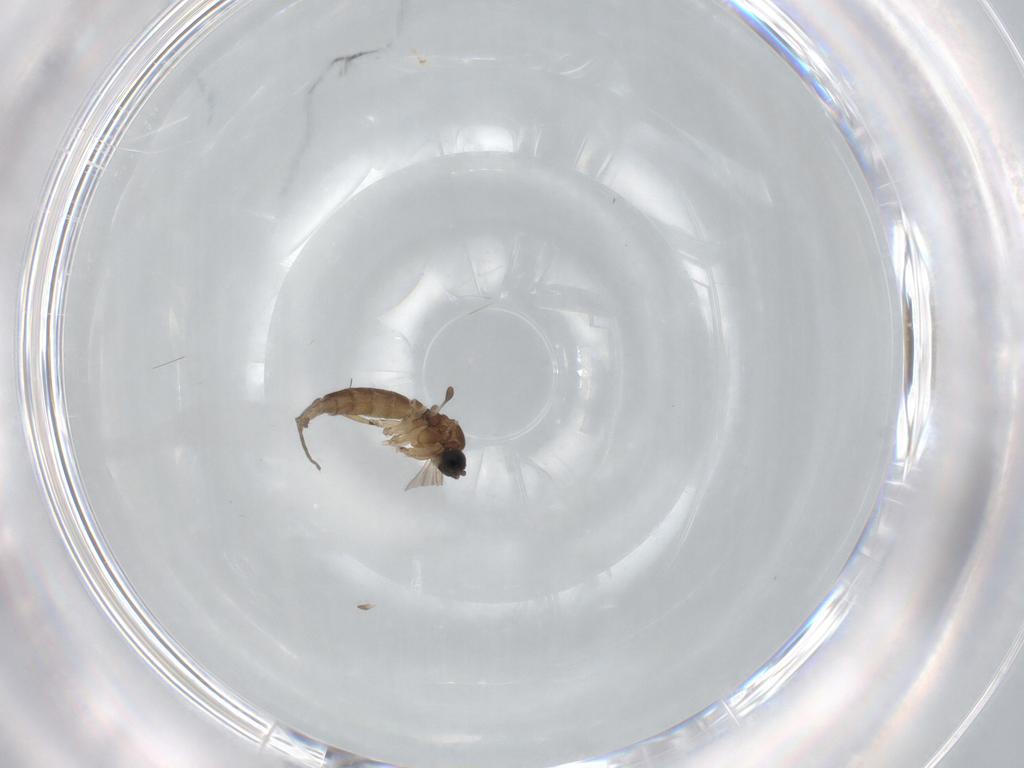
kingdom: Animalia
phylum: Arthropoda
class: Insecta
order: Diptera
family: Sciaridae
